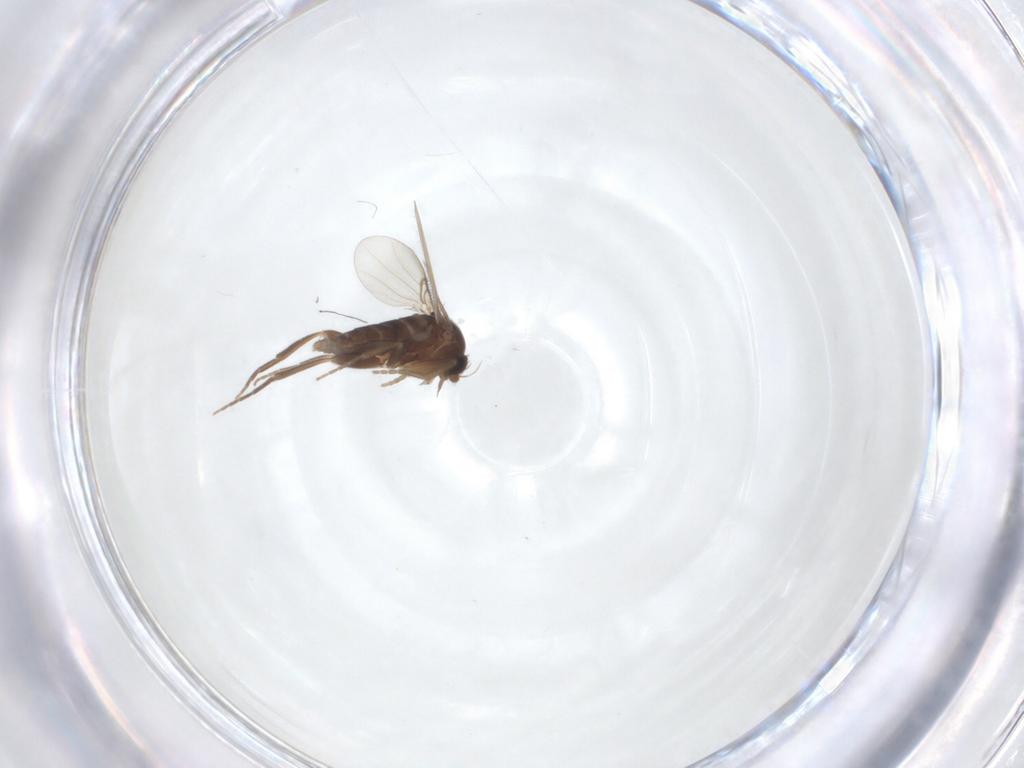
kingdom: Animalia
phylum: Arthropoda
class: Insecta
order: Diptera
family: Phoridae
